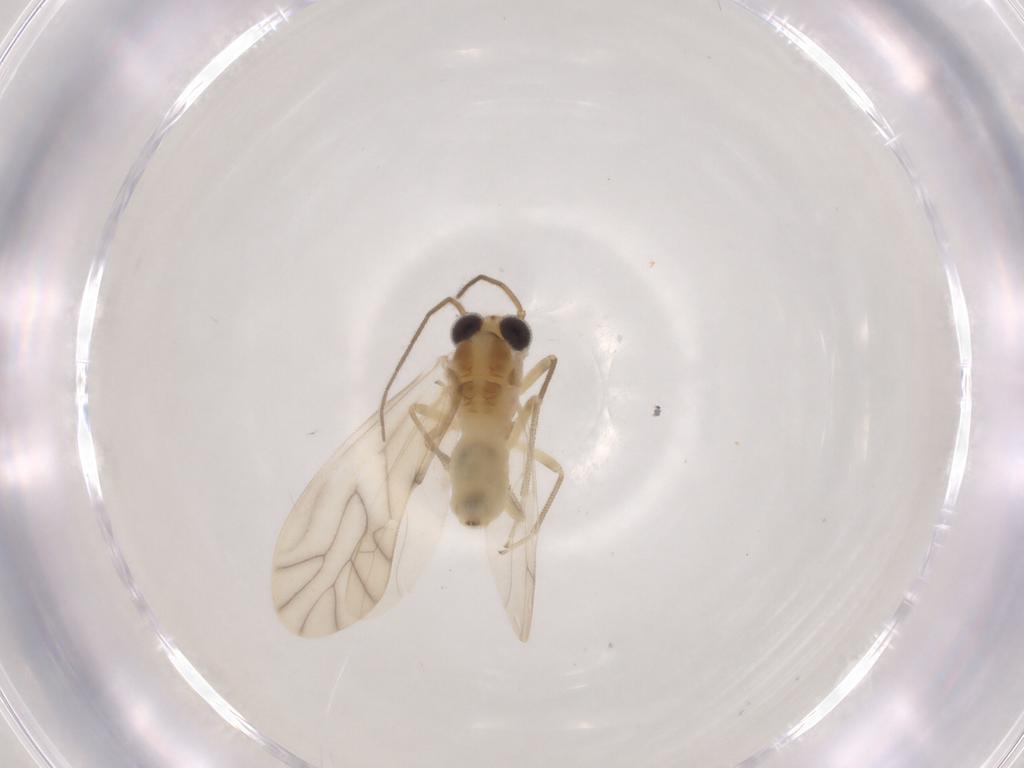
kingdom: Animalia
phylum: Arthropoda
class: Insecta
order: Psocodea
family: Caeciliusidae
